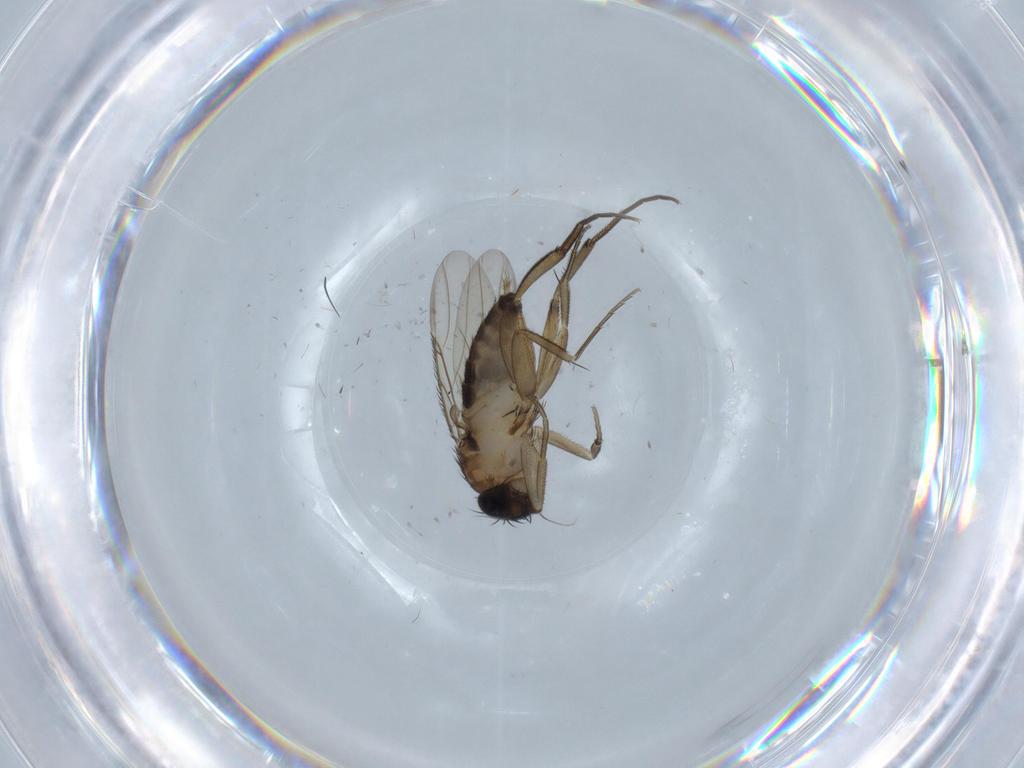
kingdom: Animalia
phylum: Arthropoda
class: Insecta
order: Diptera
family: Phoridae
